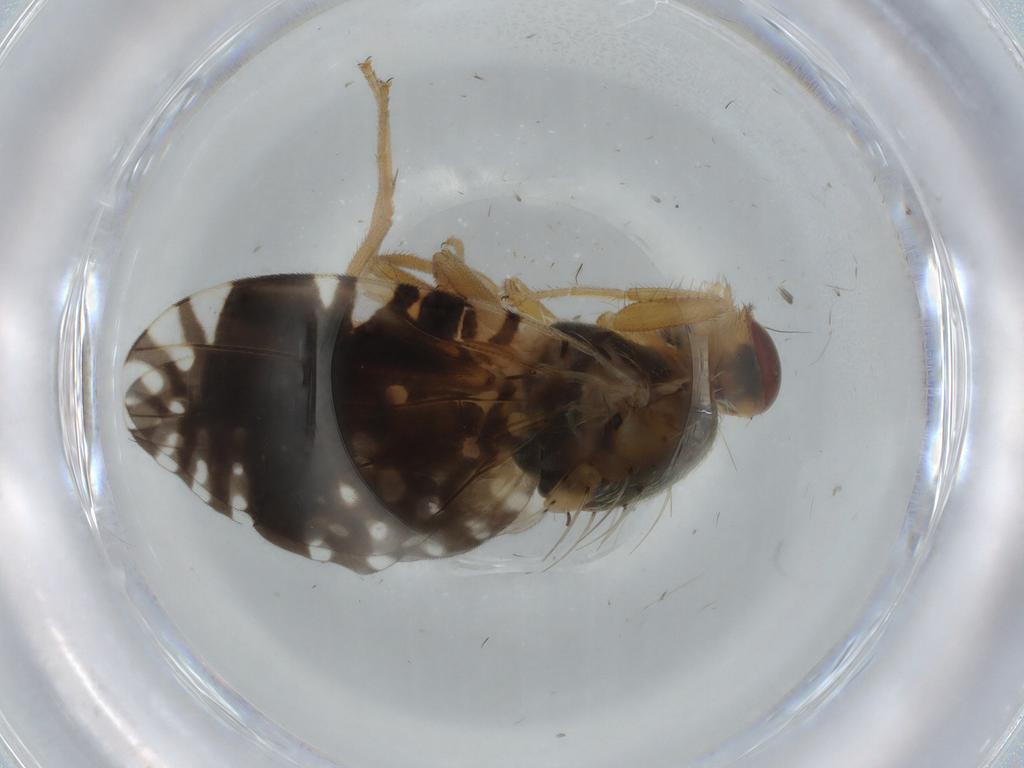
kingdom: Animalia
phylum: Arthropoda
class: Insecta
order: Diptera
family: Tephritidae
